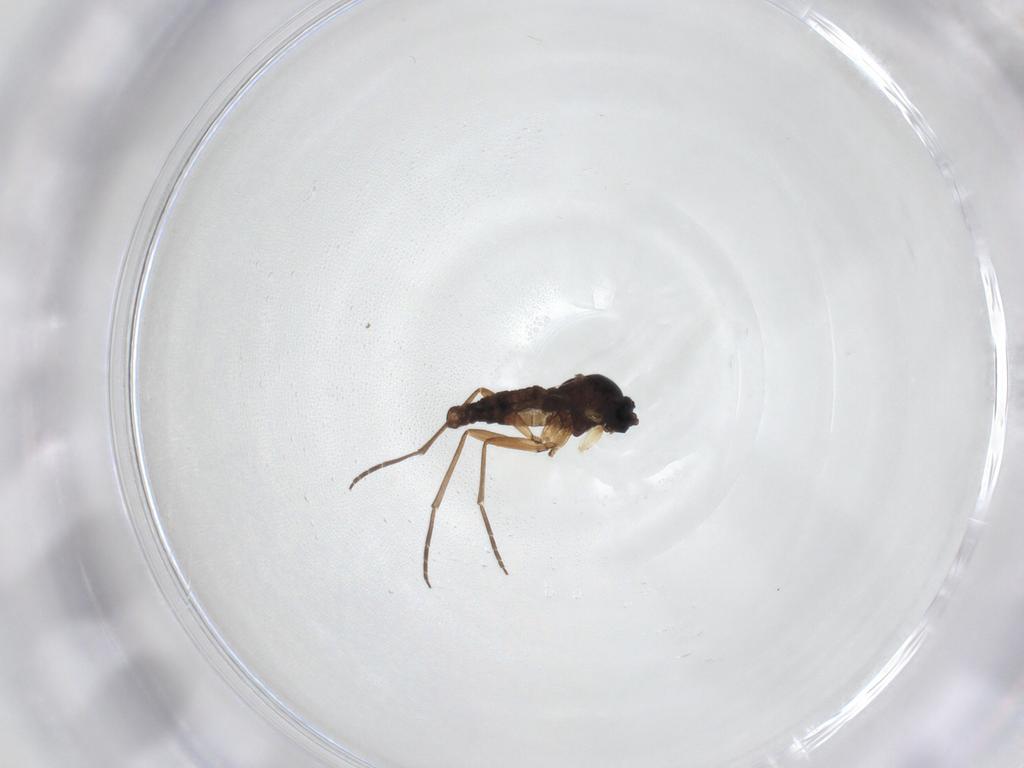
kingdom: Animalia
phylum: Arthropoda
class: Insecta
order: Diptera
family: Sciaridae
